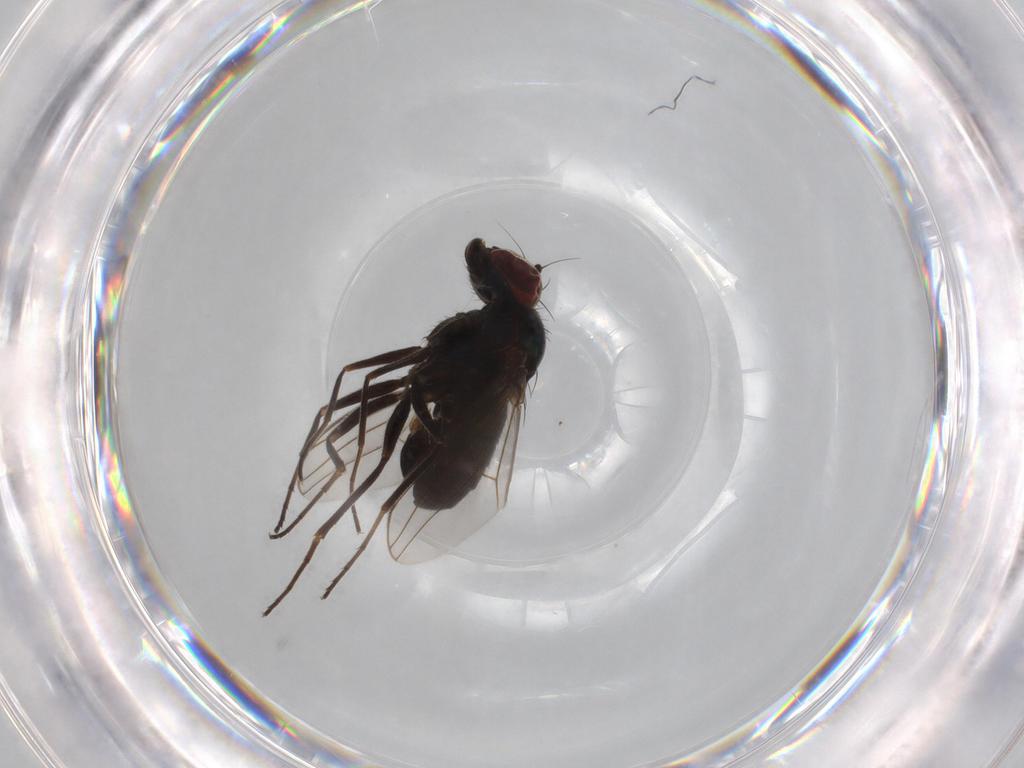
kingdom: Animalia
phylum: Arthropoda
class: Insecta
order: Diptera
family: Dolichopodidae
